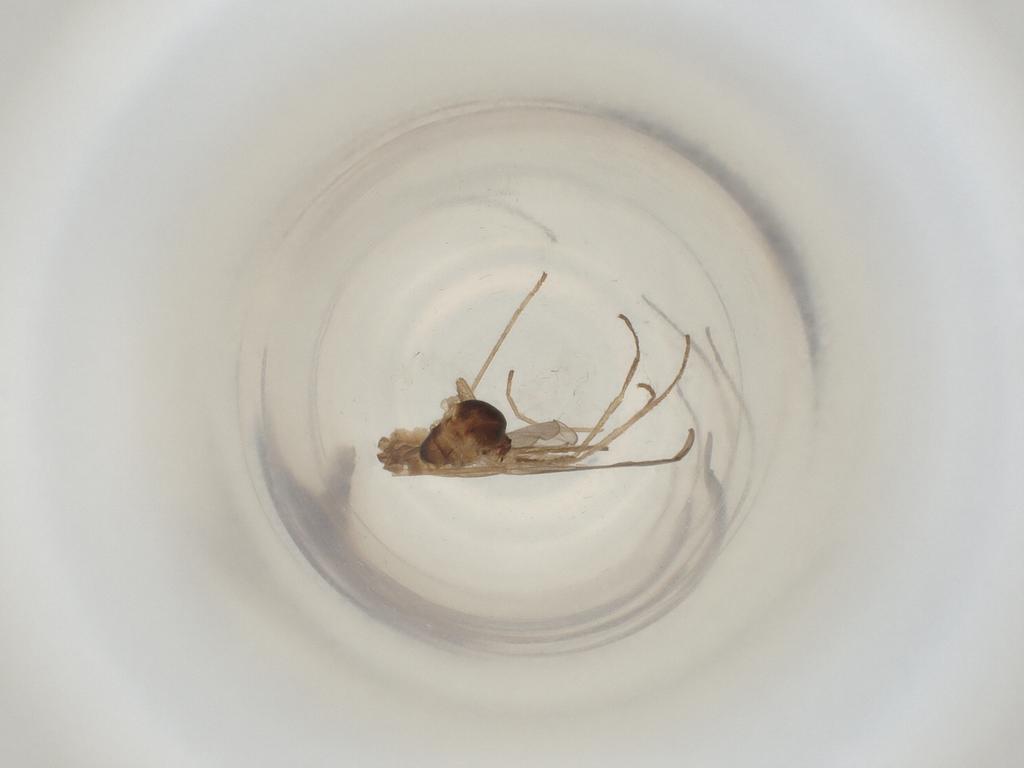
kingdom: Animalia
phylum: Arthropoda
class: Insecta
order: Diptera
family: Cecidomyiidae
